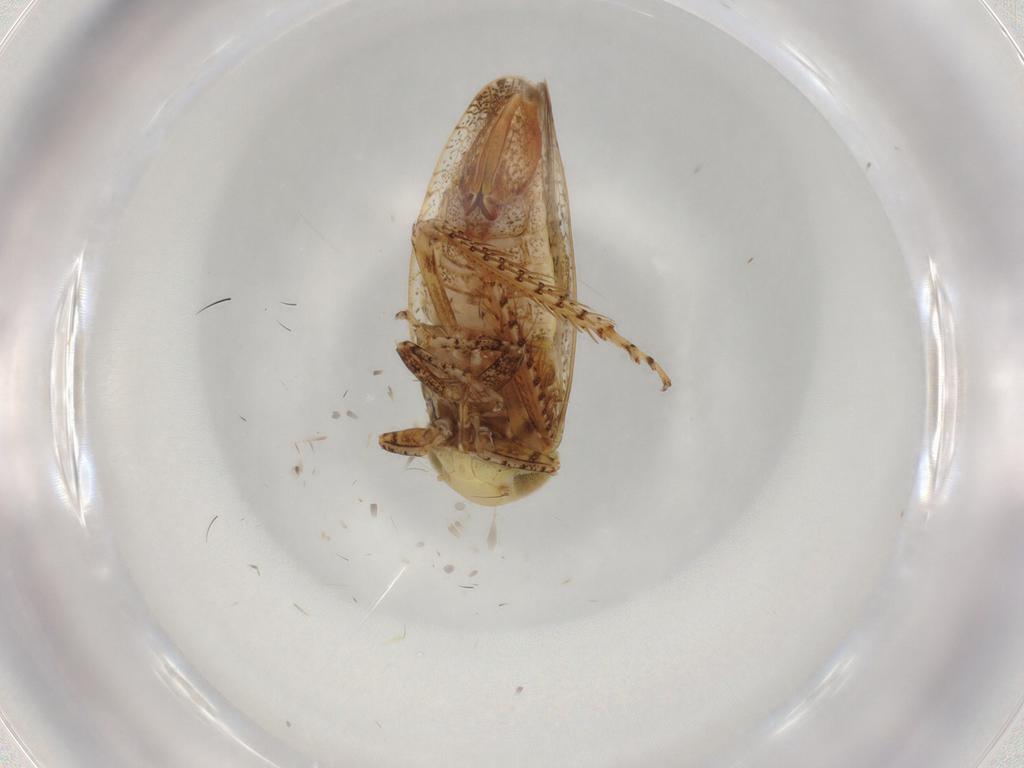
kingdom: Animalia
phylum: Arthropoda
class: Insecta
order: Hemiptera
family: Cicadellidae
